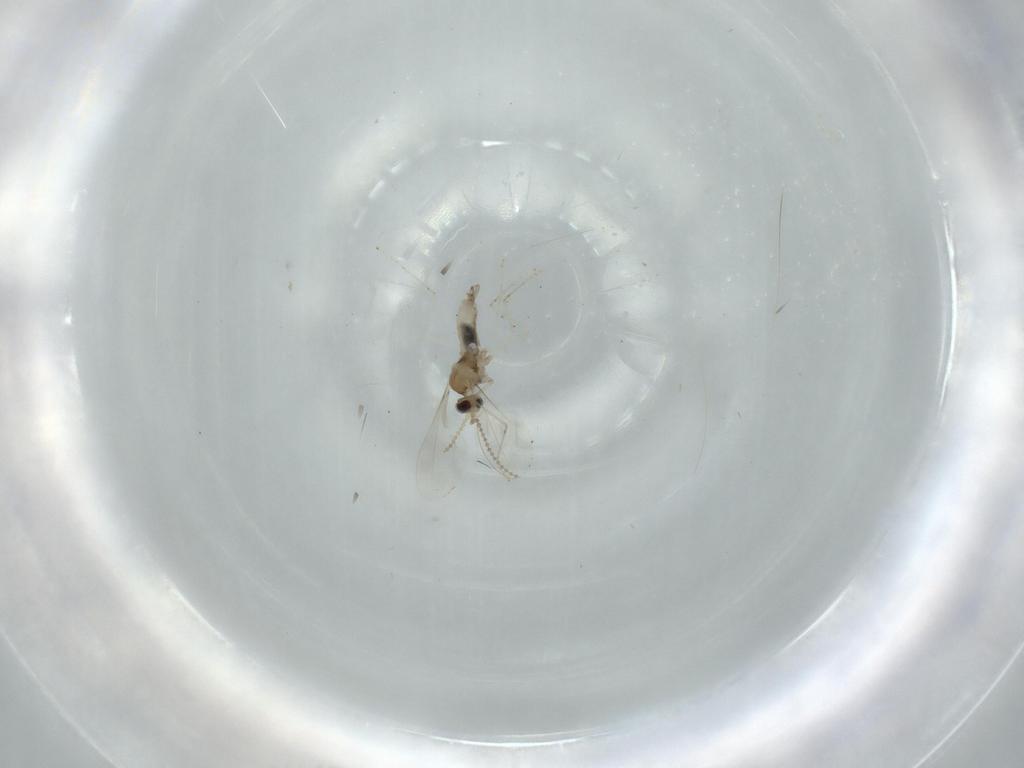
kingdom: Animalia
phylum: Arthropoda
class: Insecta
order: Diptera
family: Cecidomyiidae
